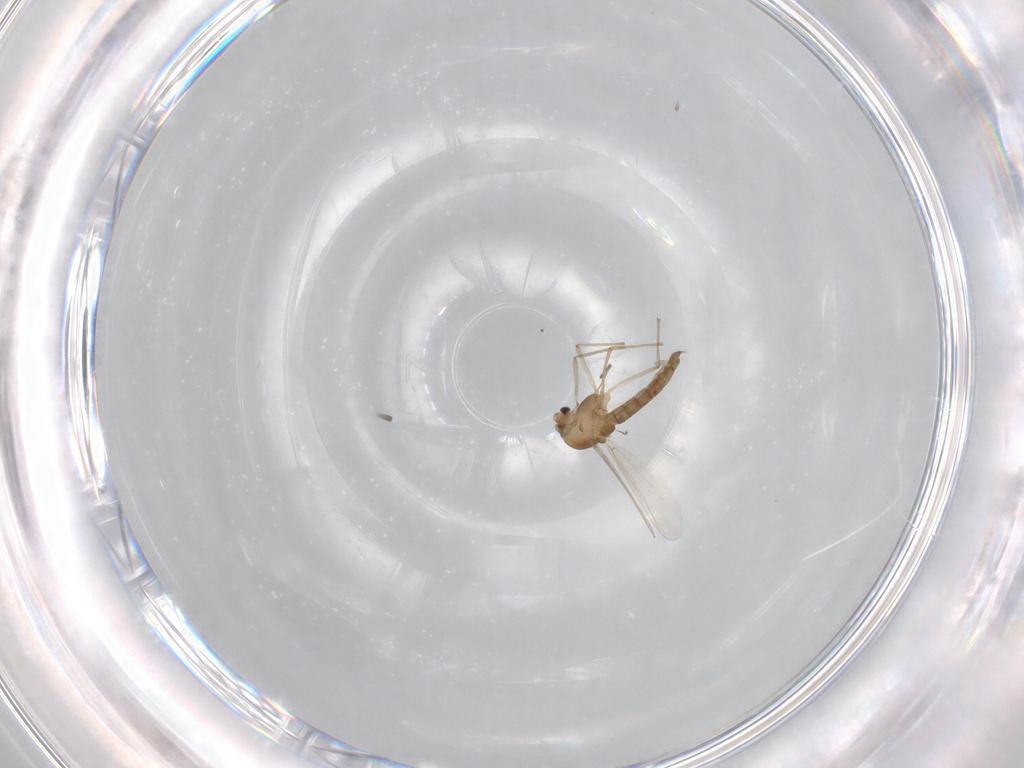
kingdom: Animalia
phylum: Arthropoda
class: Insecta
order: Diptera
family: Chironomidae
